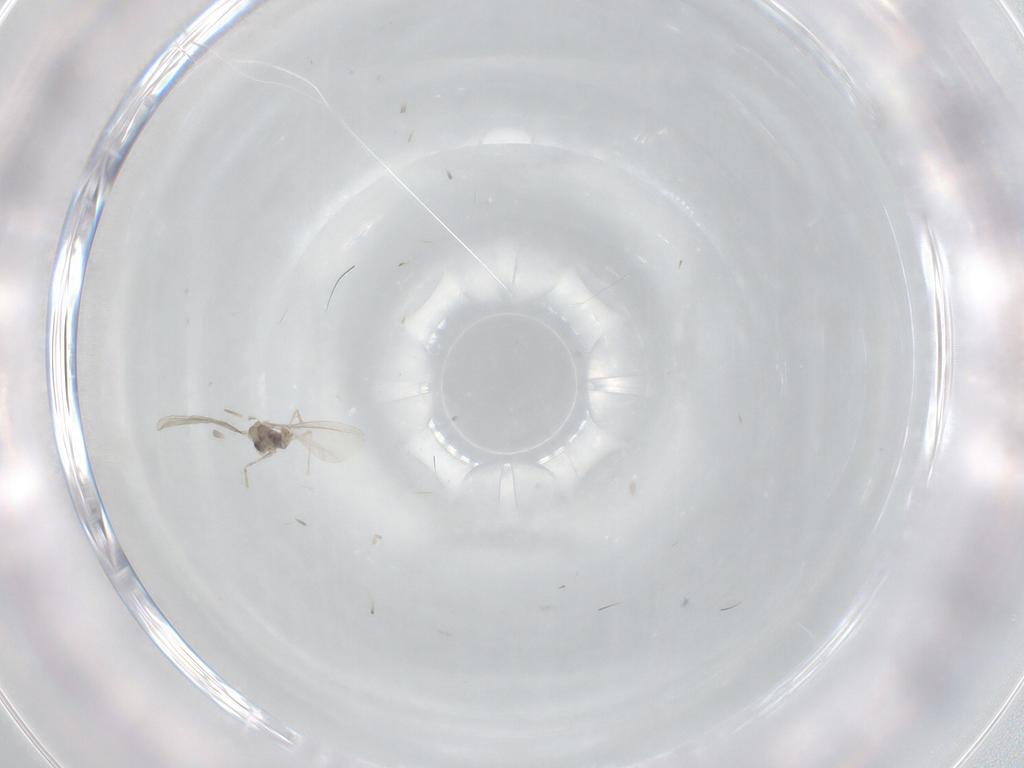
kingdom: Animalia
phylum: Arthropoda
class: Insecta
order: Diptera
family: Cecidomyiidae
